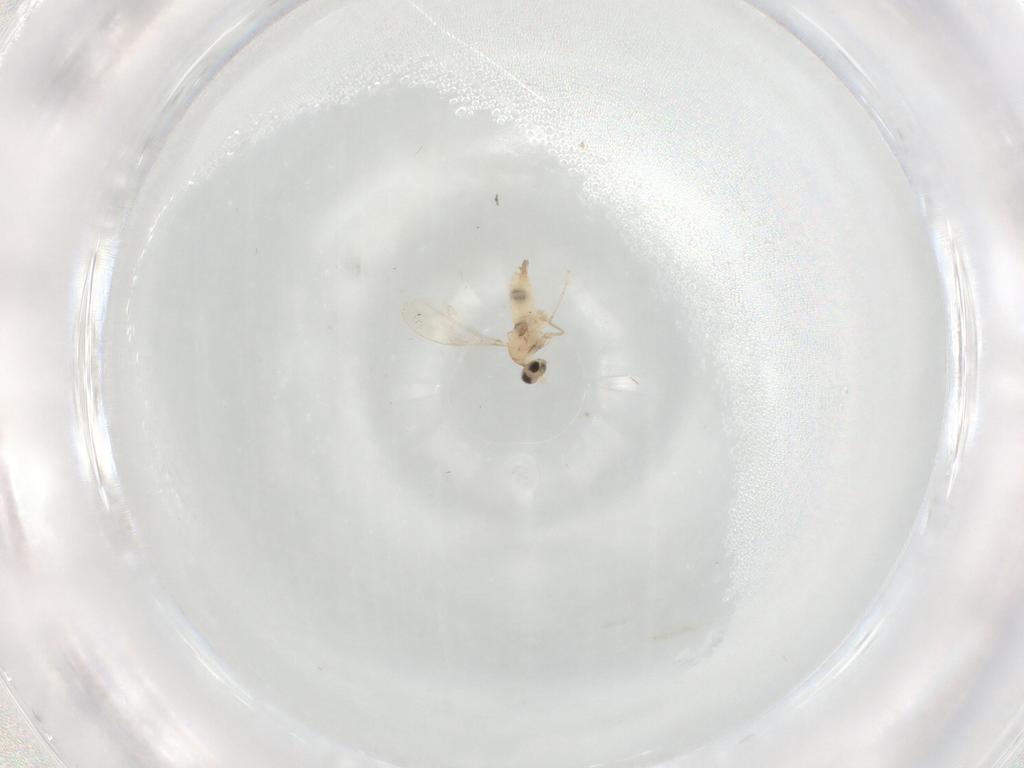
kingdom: Animalia
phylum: Arthropoda
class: Insecta
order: Diptera
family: Cecidomyiidae
